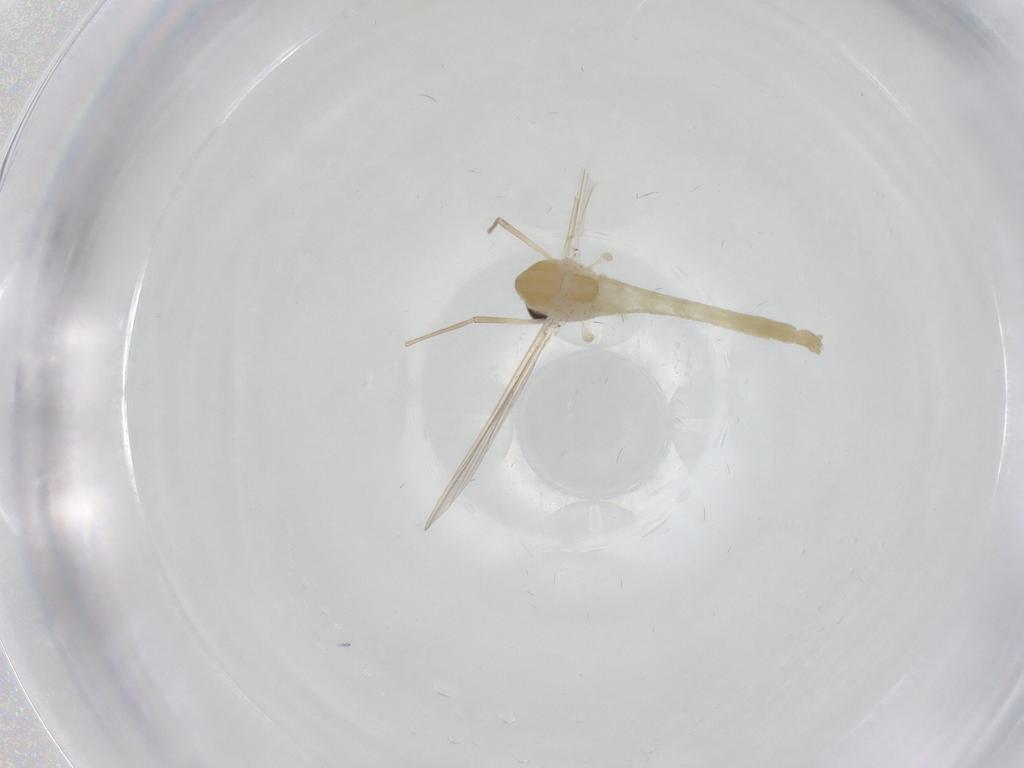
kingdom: Animalia
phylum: Arthropoda
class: Insecta
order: Diptera
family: Chironomidae
